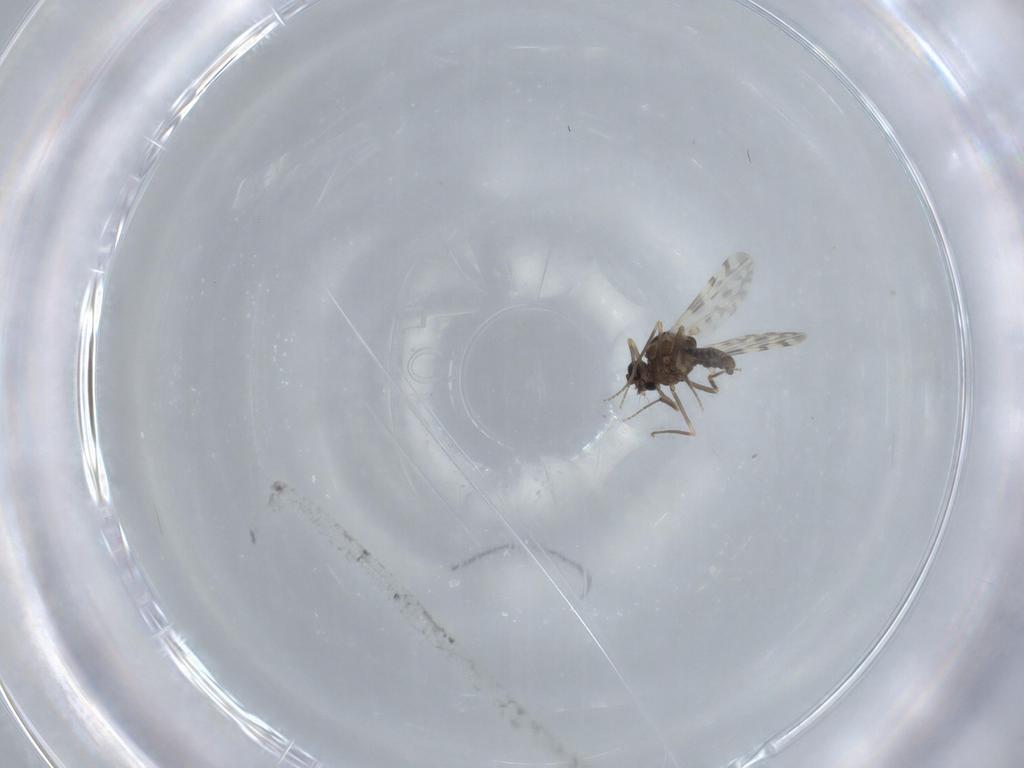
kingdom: Animalia
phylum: Arthropoda
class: Insecta
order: Diptera
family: Ceratopogonidae
